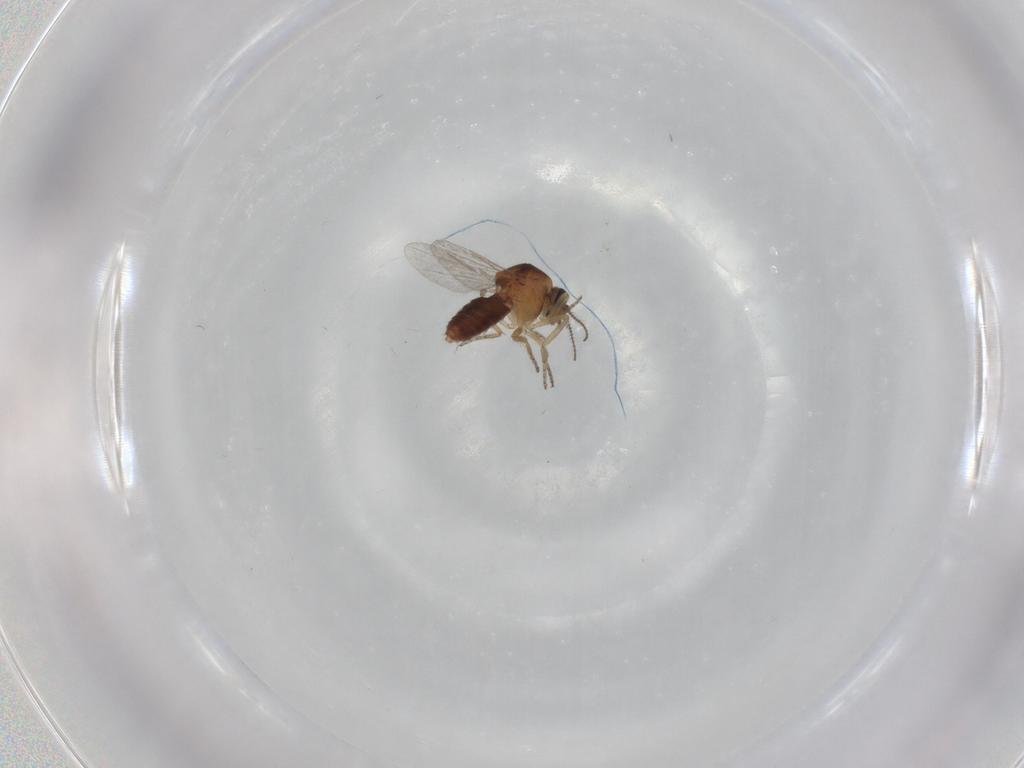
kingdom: Animalia
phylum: Arthropoda
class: Insecta
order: Diptera
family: Ceratopogonidae
